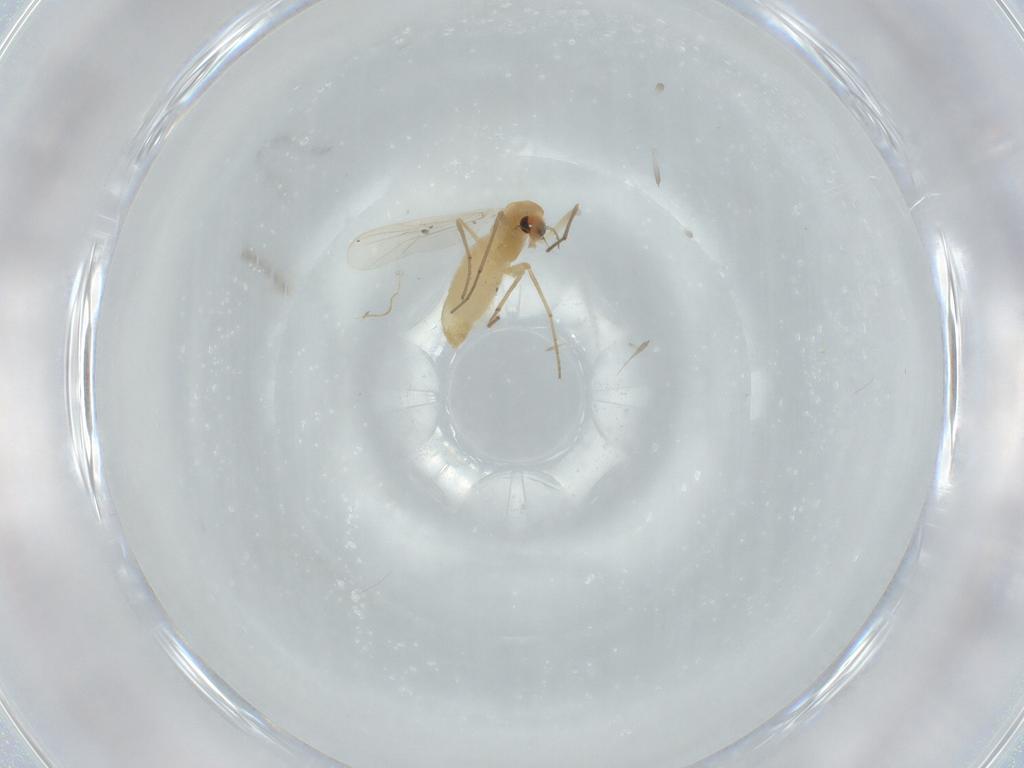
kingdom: Animalia
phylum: Arthropoda
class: Insecta
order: Diptera
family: Chironomidae
